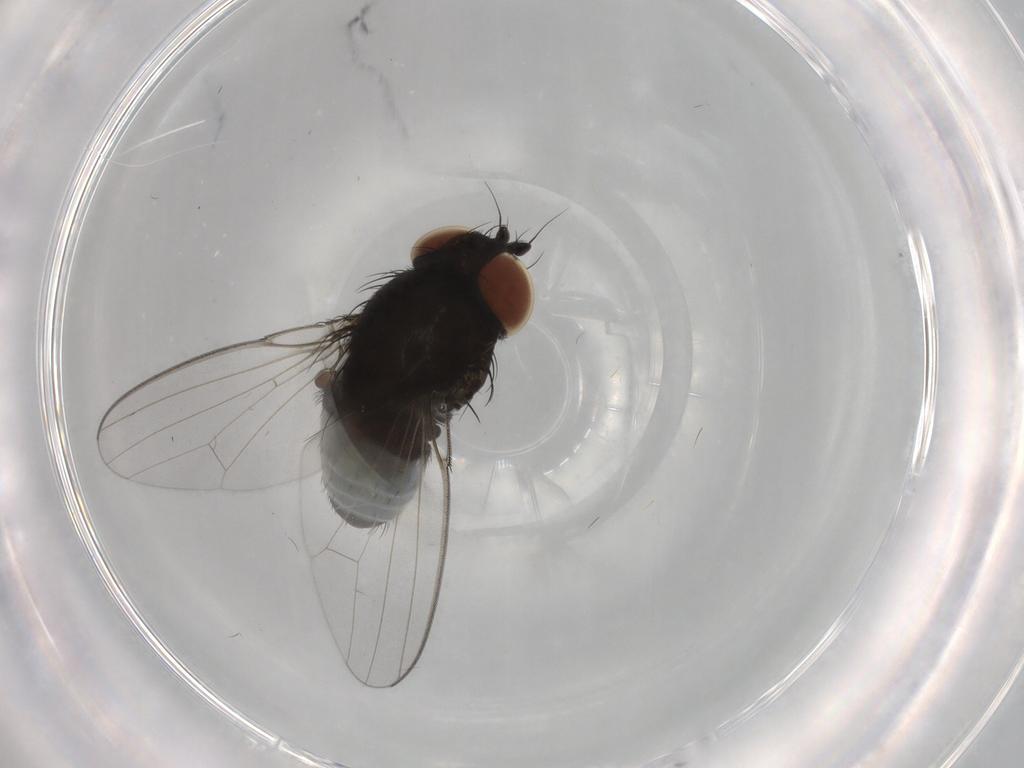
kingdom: Animalia
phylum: Arthropoda
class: Insecta
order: Diptera
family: Milichiidae
